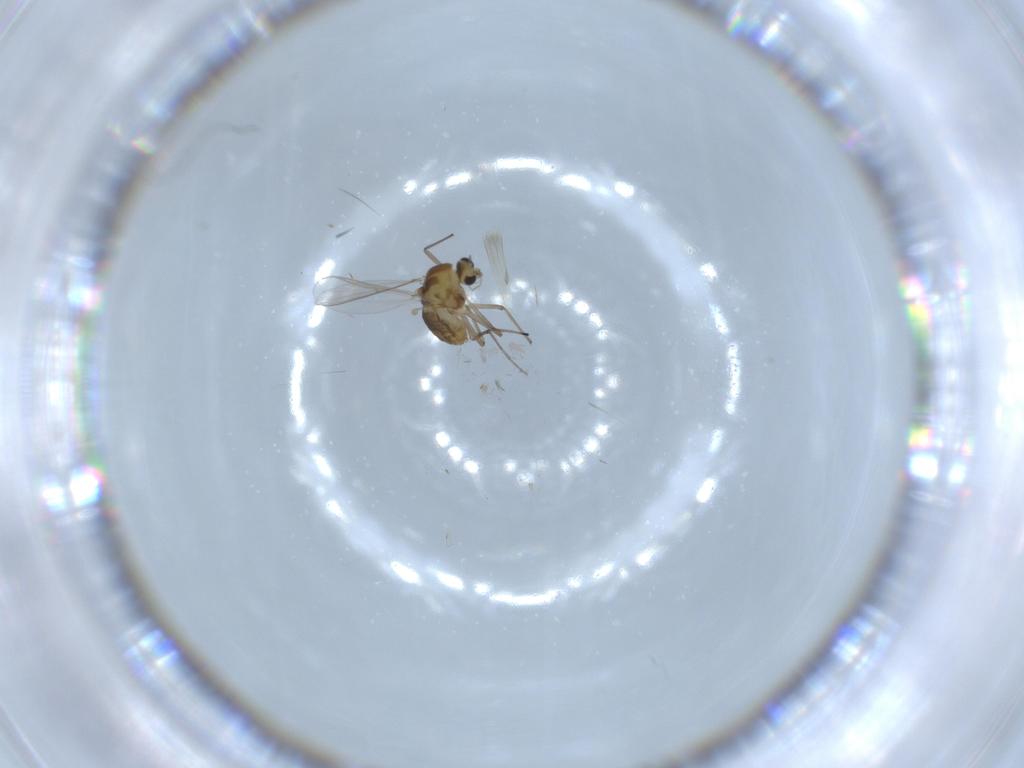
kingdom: Animalia
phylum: Arthropoda
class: Insecta
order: Diptera
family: Chironomidae
